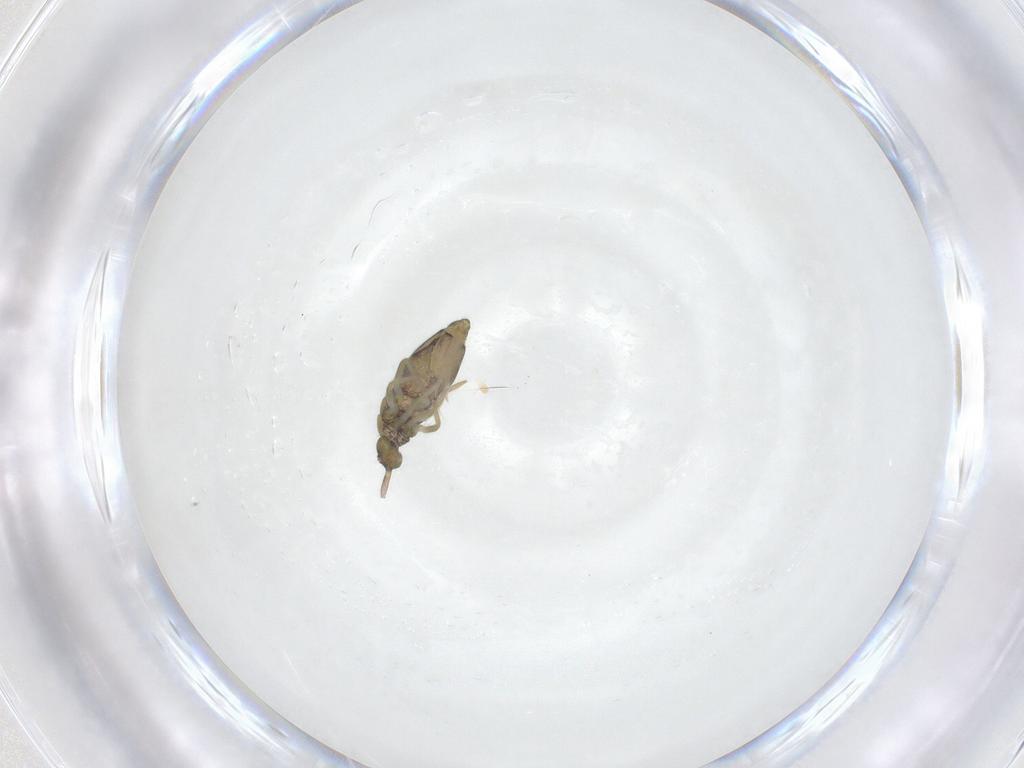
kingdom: Animalia
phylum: Arthropoda
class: Collembola
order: Entomobryomorpha
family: Entomobryidae
